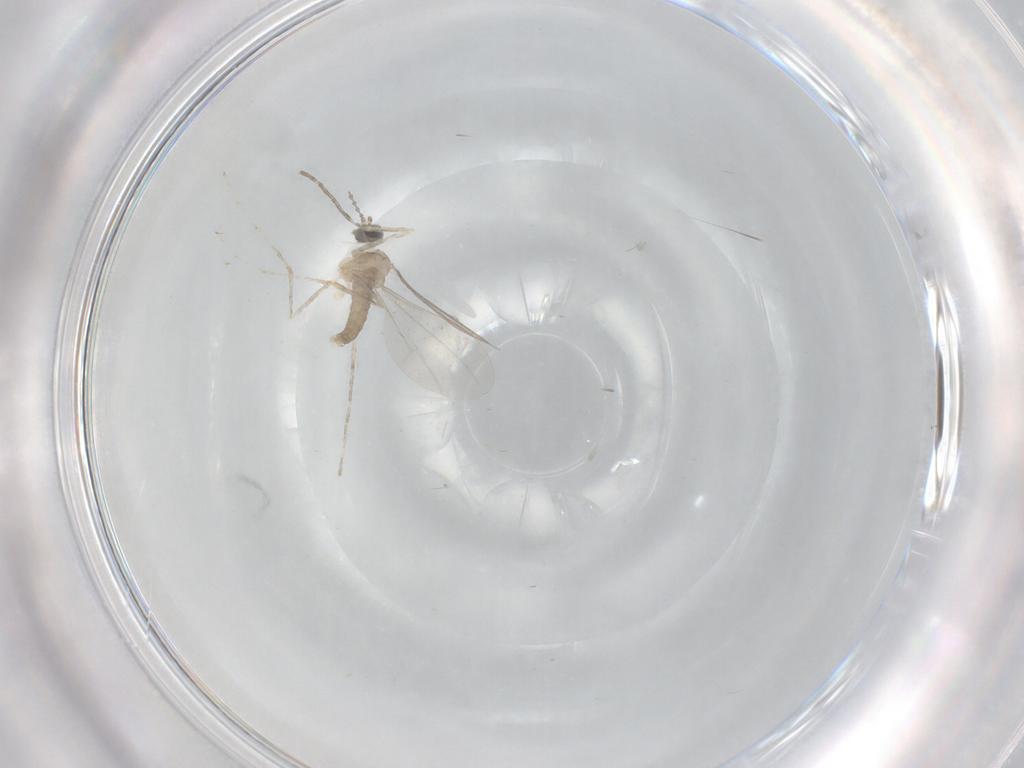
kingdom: Animalia
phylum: Arthropoda
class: Insecta
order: Diptera
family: Cecidomyiidae
